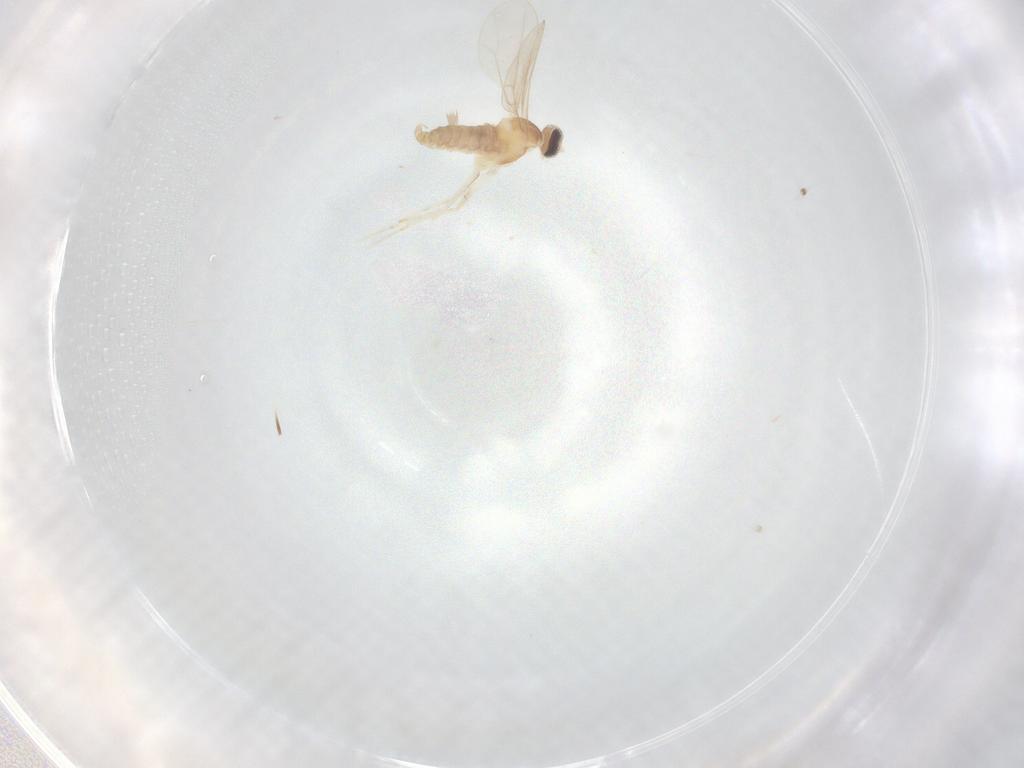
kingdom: Animalia
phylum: Arthropoda
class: Insecta
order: Diptera
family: Cecidomyiidae
